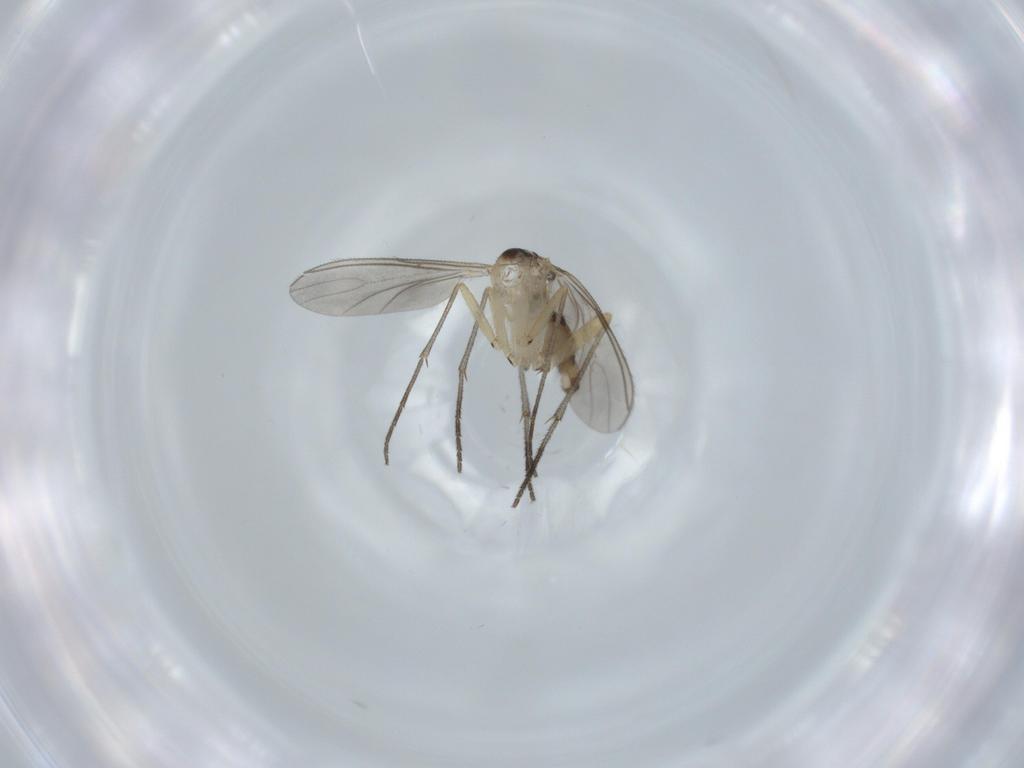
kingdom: Animalia
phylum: Arthropoda
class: Insecta
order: Diptera
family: Sciaridae
